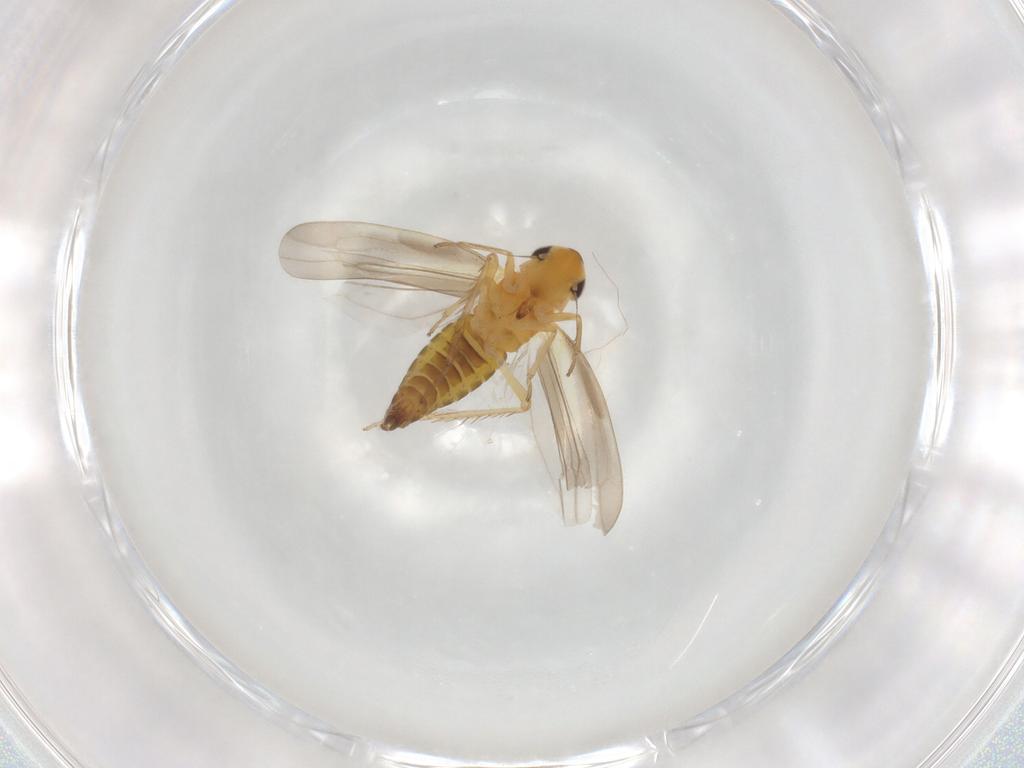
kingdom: Animalia
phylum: Arthropoda
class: Insecta
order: Hemiptera
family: Cicadellidae
